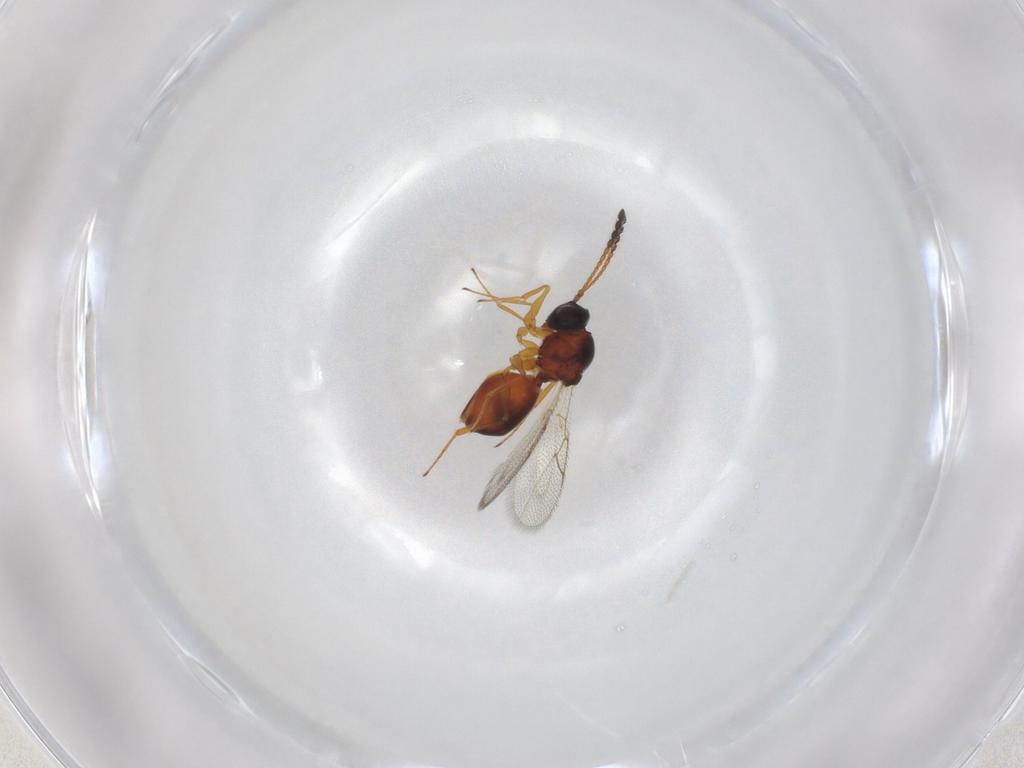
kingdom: Animalia
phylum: Arthropoda
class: Insecta
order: Hymenoptera
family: Figitidae
